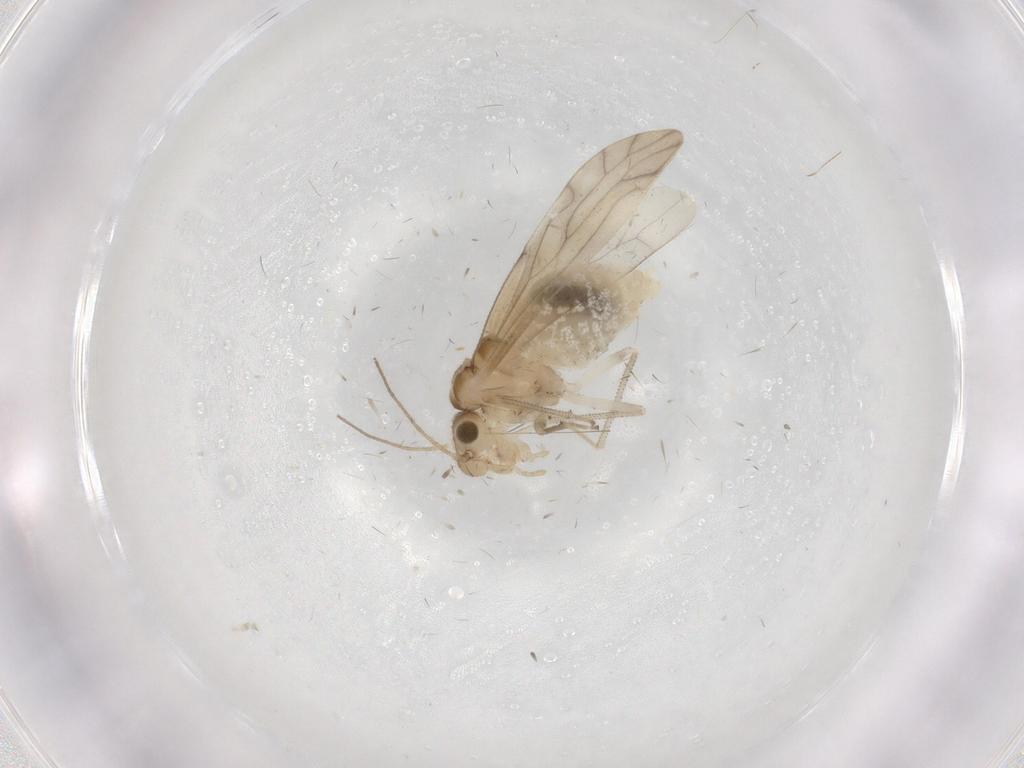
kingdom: Animalia
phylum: Arthropoda
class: Insecta
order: Psocodea
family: Caeciliusidae
